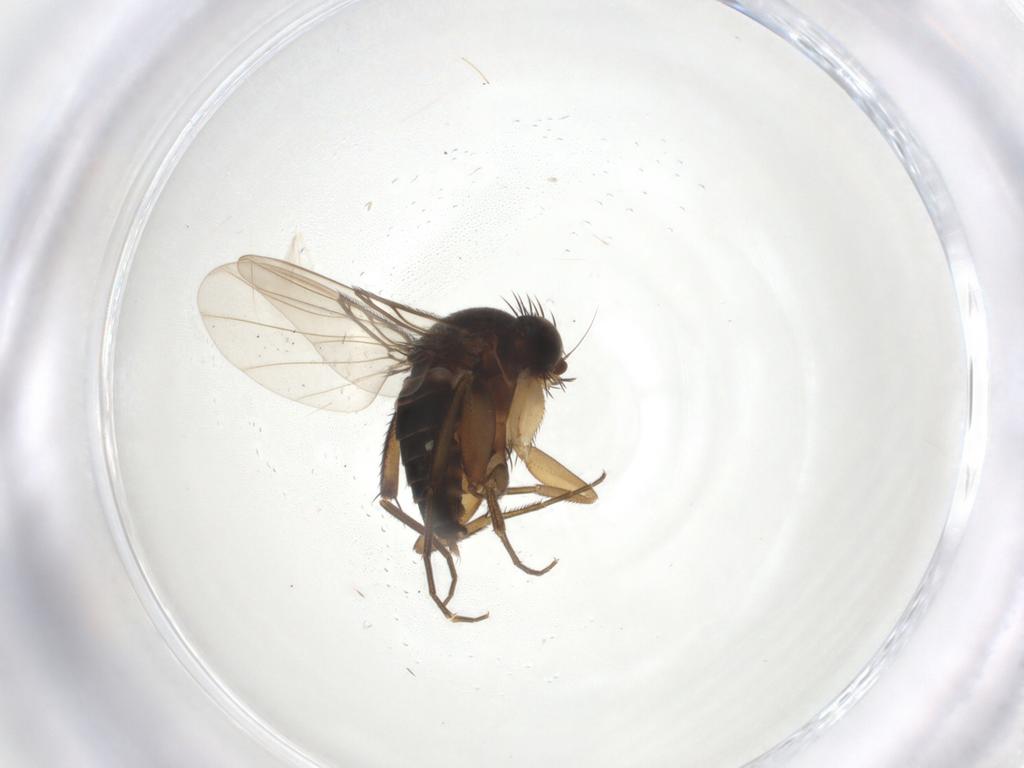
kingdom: Animalia
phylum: Arthropoda
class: Insecta
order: Diptera
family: Phoridae
